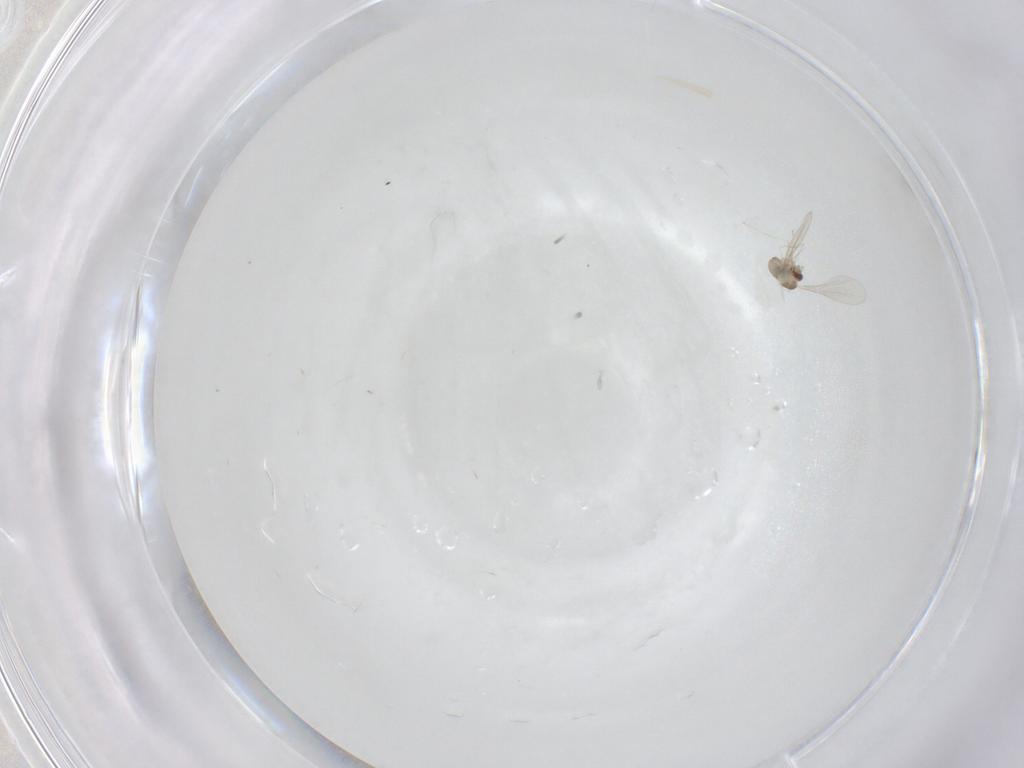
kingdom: Animalia
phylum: Arthropoda
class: Insecta
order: Diptera
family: Cecidomyiidae
